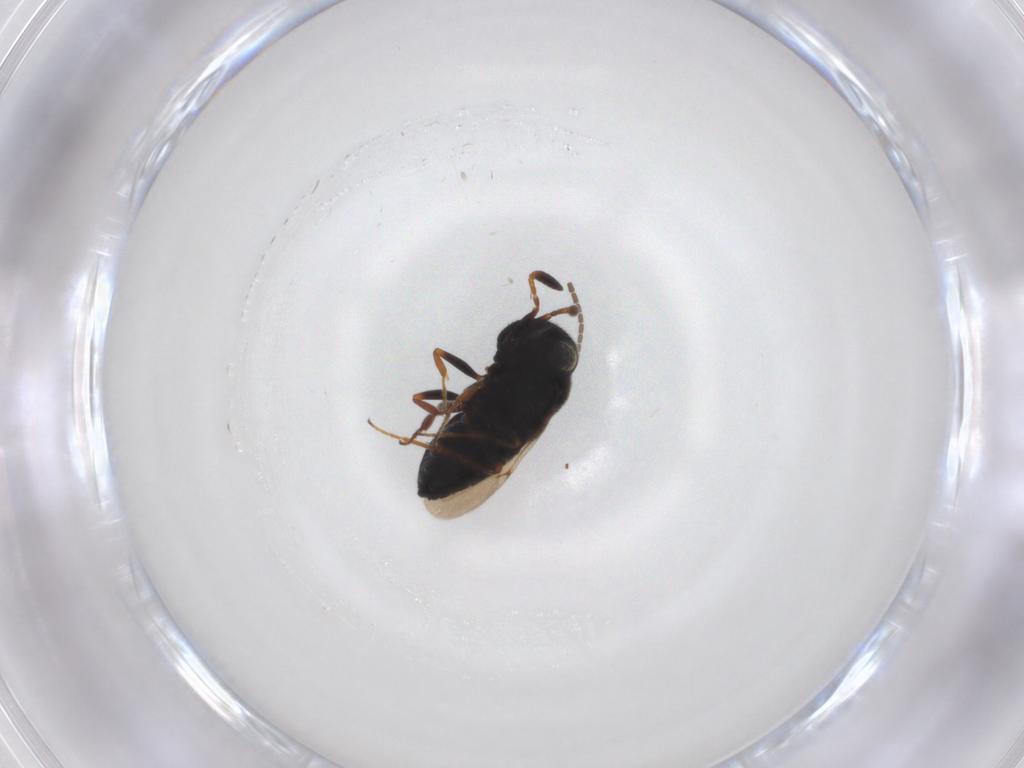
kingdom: Animalia
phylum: Arthropoda
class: Insecta
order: Hymenoptera
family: Scelionidae
